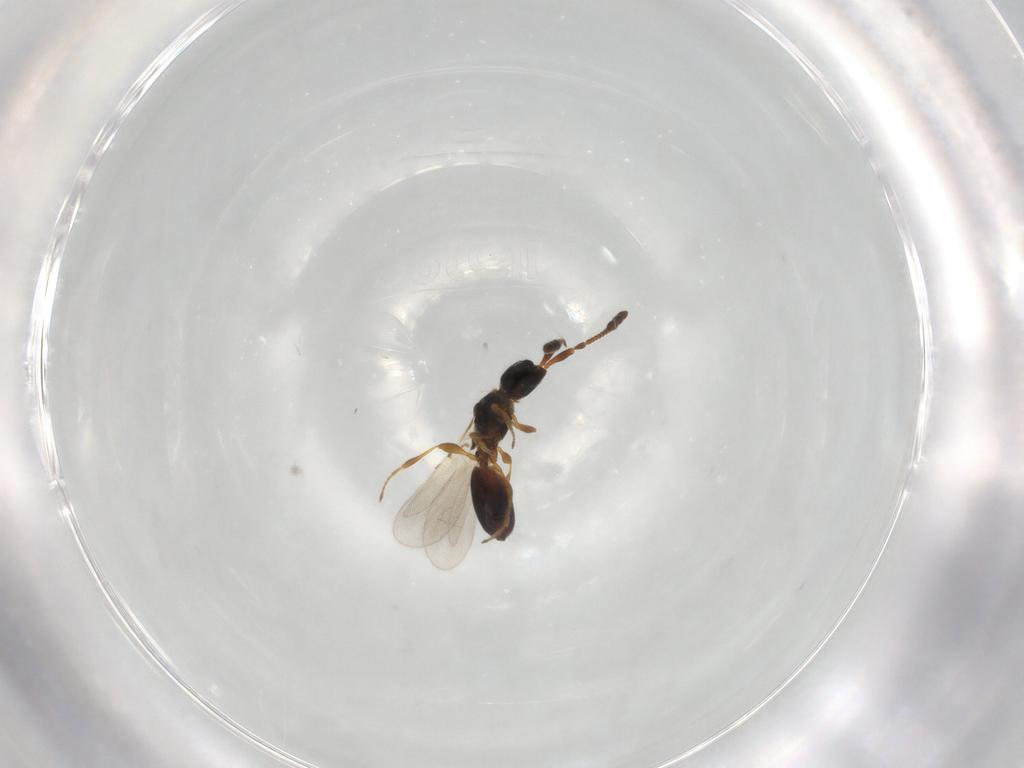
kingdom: Animalia
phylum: Arthropoda
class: Insecta
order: Hymenoptera
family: Diapriidae
